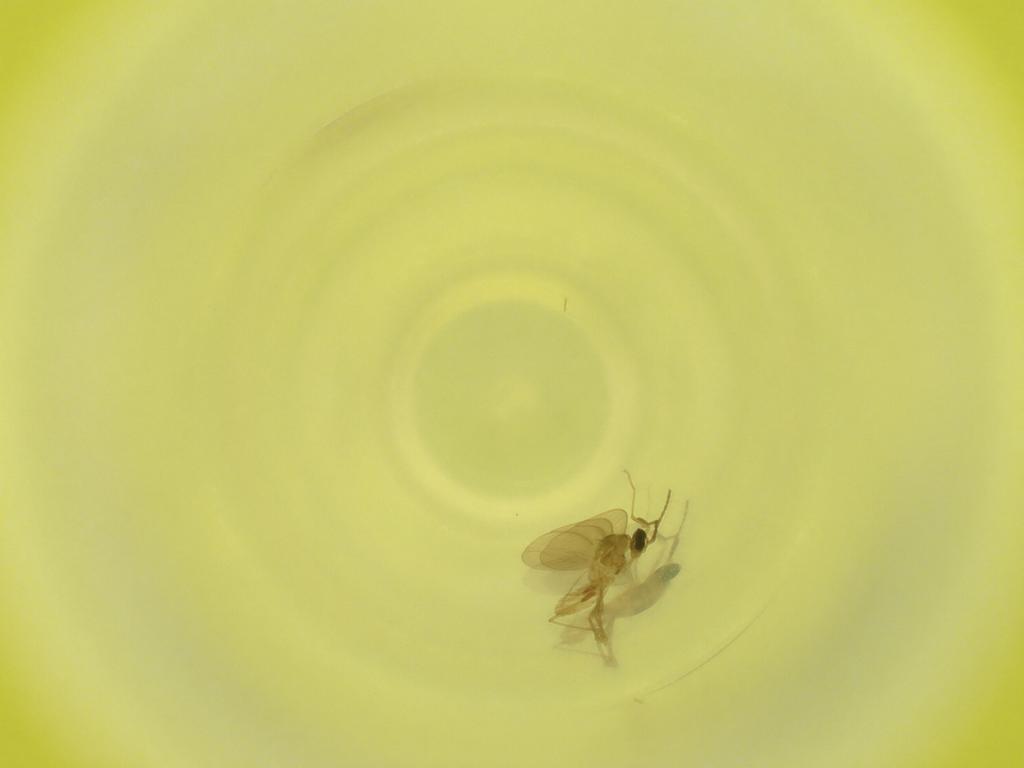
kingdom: Animalia
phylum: Arthropoda
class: Insecta
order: Diptera
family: Cecidomyiidae
